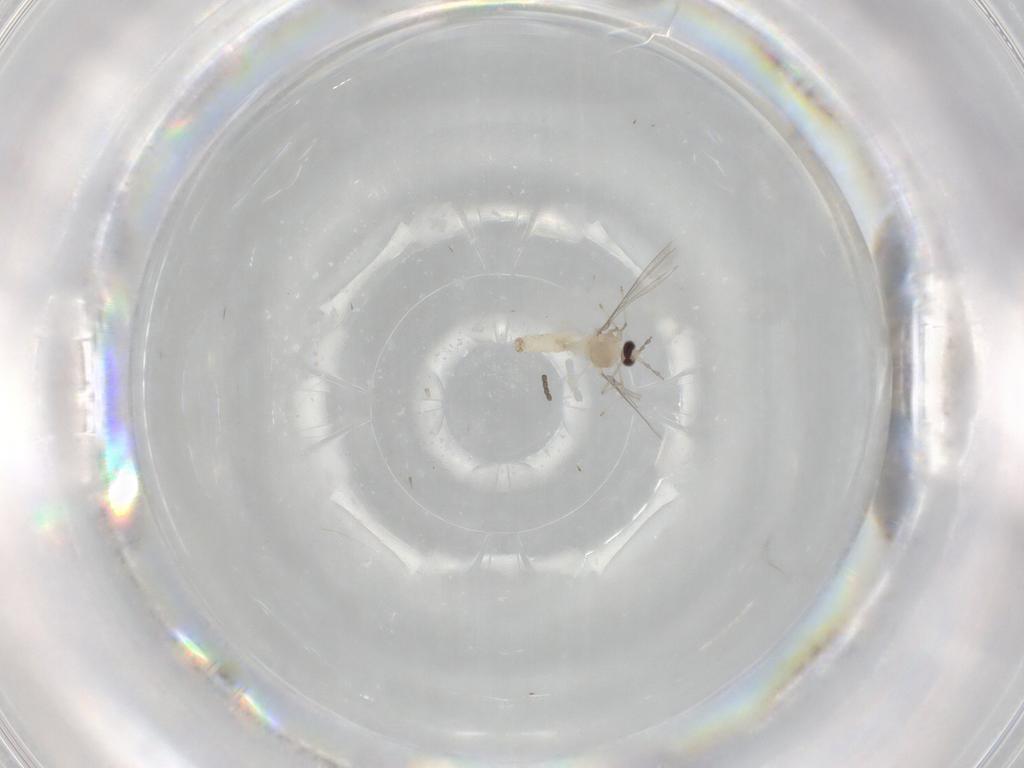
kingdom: Animalia
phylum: Arthropoda
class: Insecta
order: Diptera
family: Cecidomyiidae
